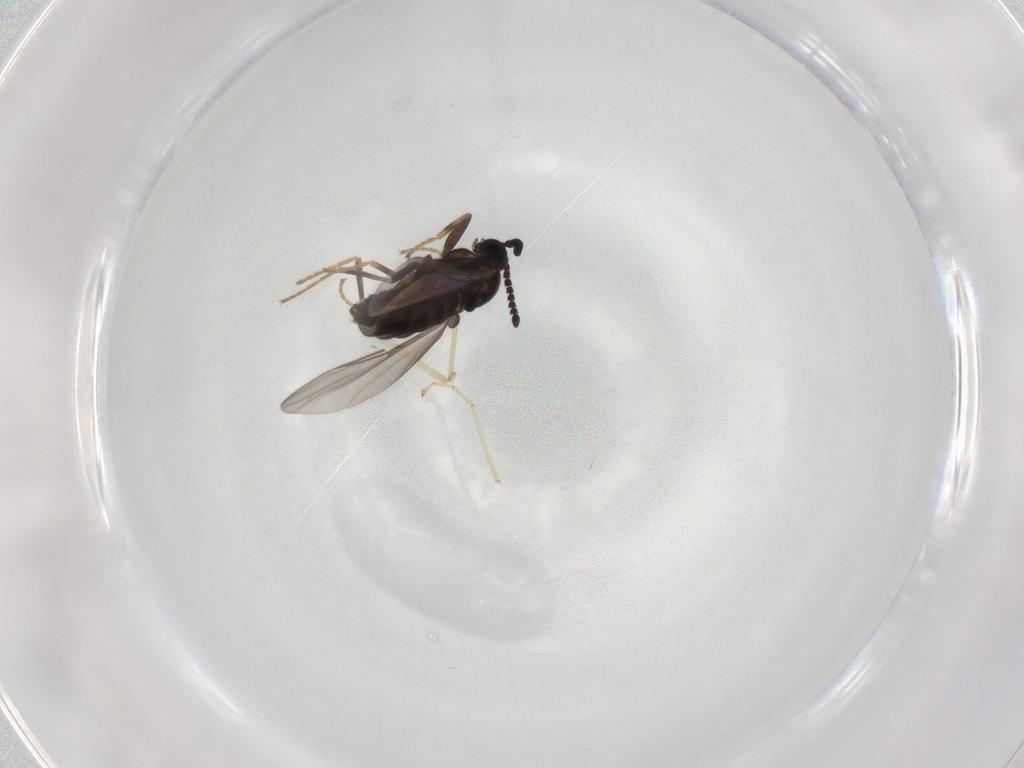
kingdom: Animalia
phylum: Arthropoda
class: Insecta
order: Diptera
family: Scatopsidae
